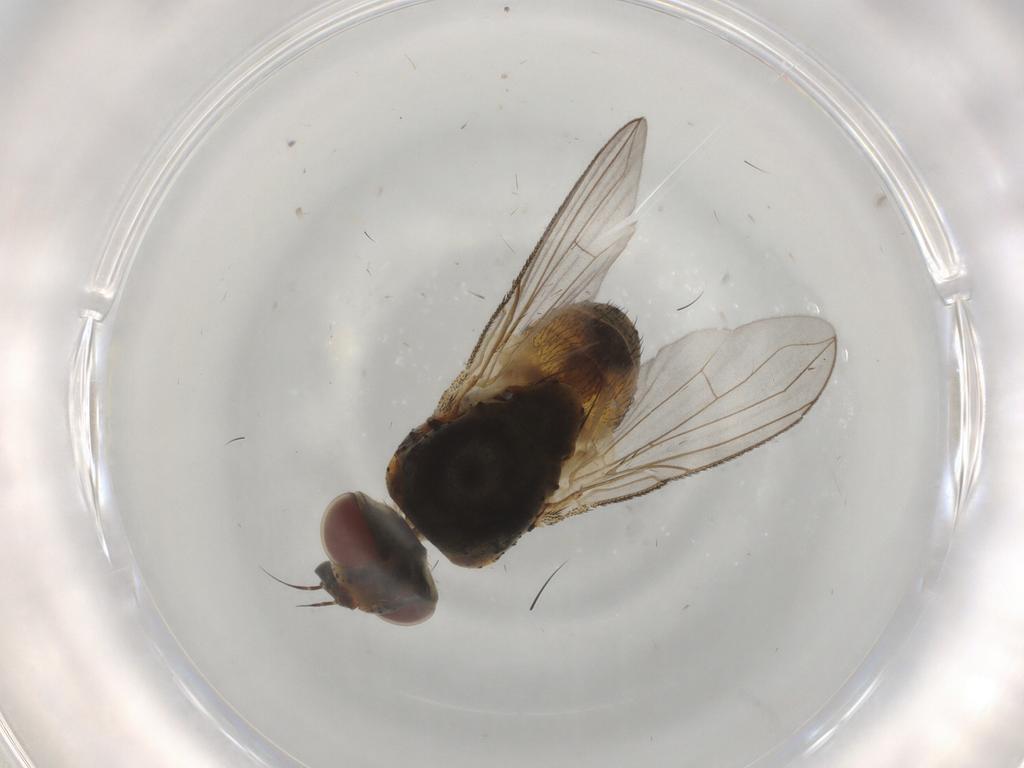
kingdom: Animalia
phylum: Arthropoda
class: Insecta
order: Diptera
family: Tachinidae
